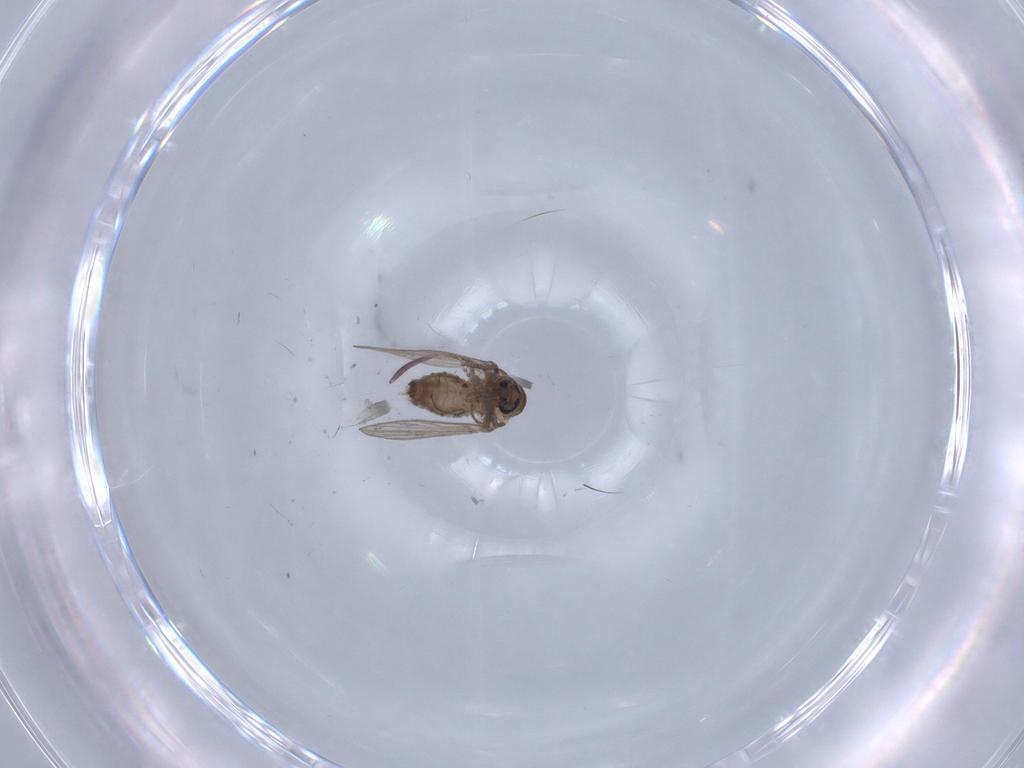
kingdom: Animalia
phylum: Arthropoda
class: Insecta
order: Diptera
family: Psychodidae
